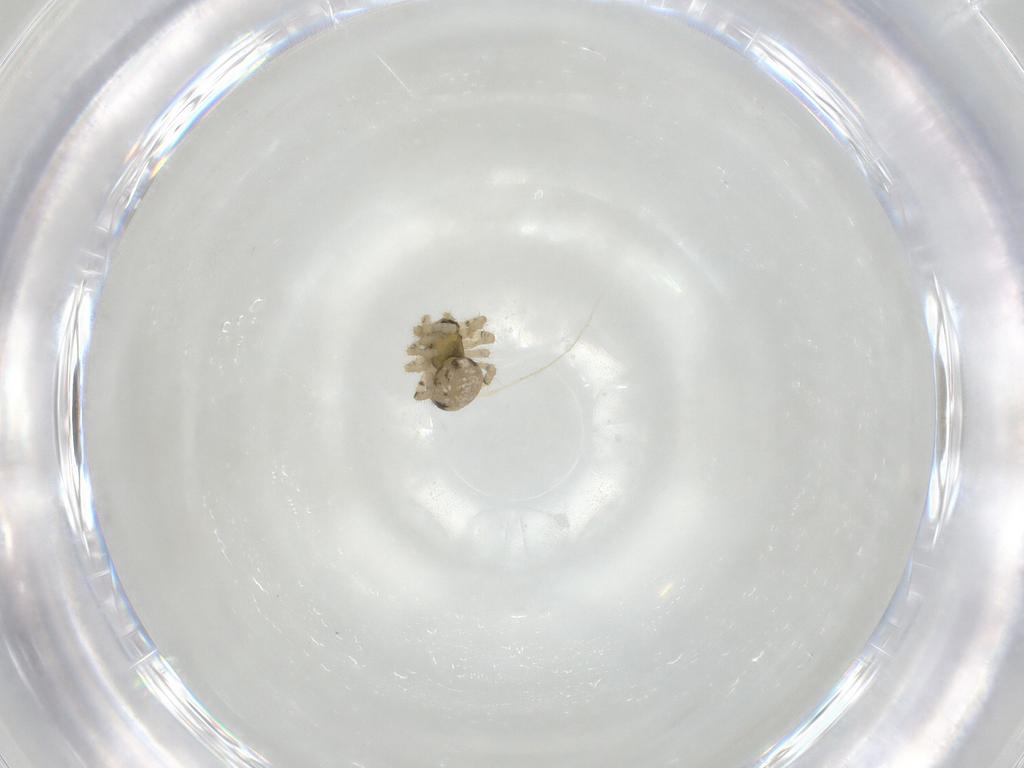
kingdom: Animalia
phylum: Arthropoda
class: Arachnida
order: Araneae
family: Theridiidae
